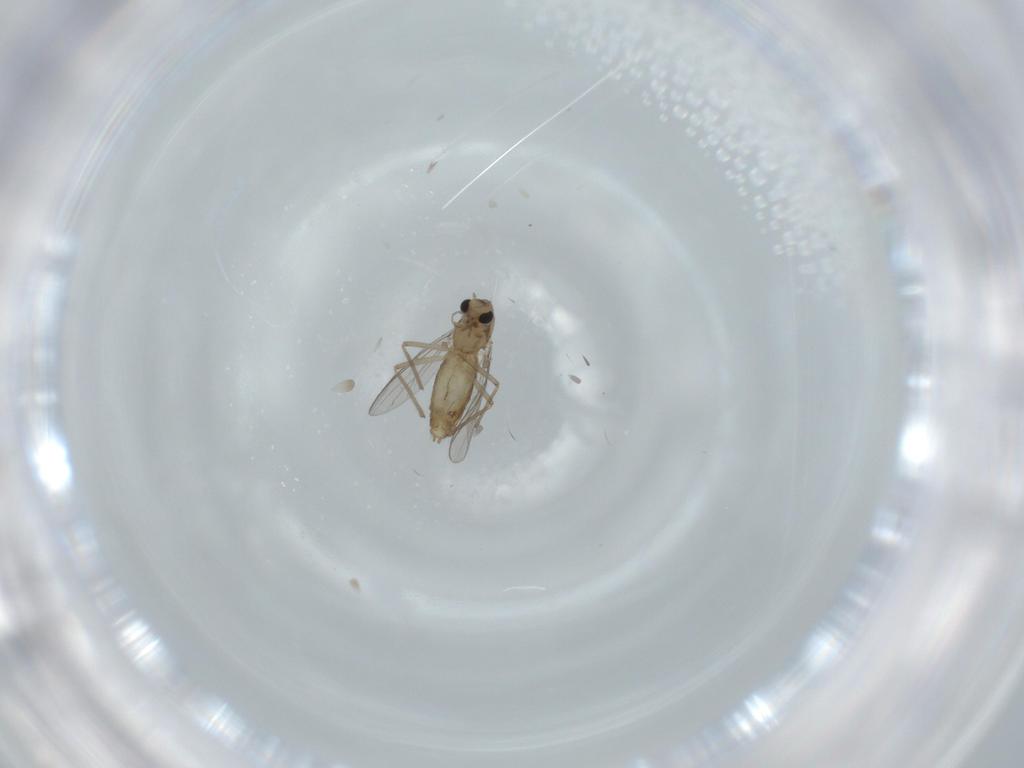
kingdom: Animalia
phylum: Arthropoda
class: Insecta
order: Diptera
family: Chironomidae
